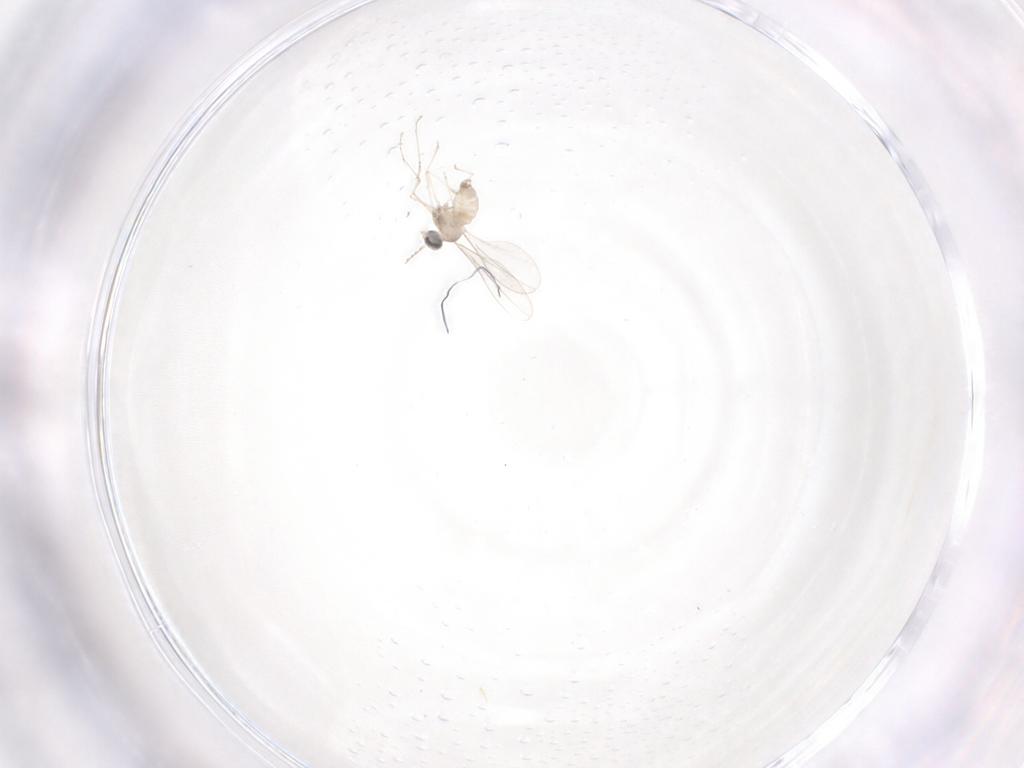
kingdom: Animalia
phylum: Arthropoda
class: Insecta
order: Diptera
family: Cecidomyiidae
